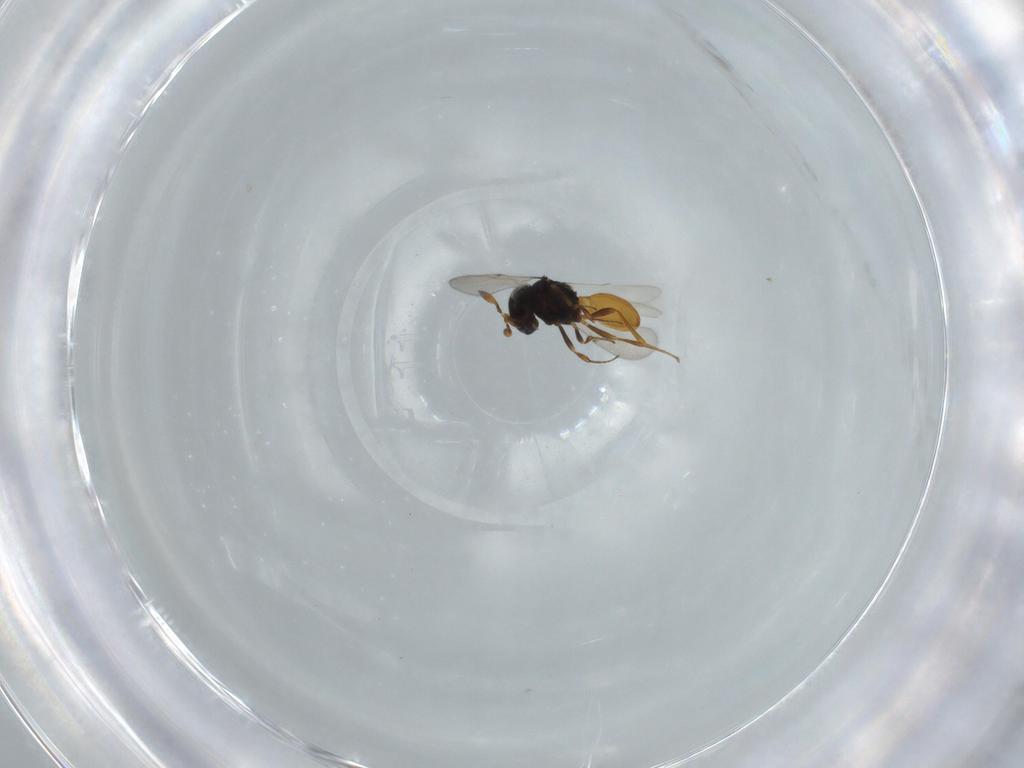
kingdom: Animalia
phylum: Arthropoda
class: Insecta
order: Hymenoptera
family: Scelionidae
